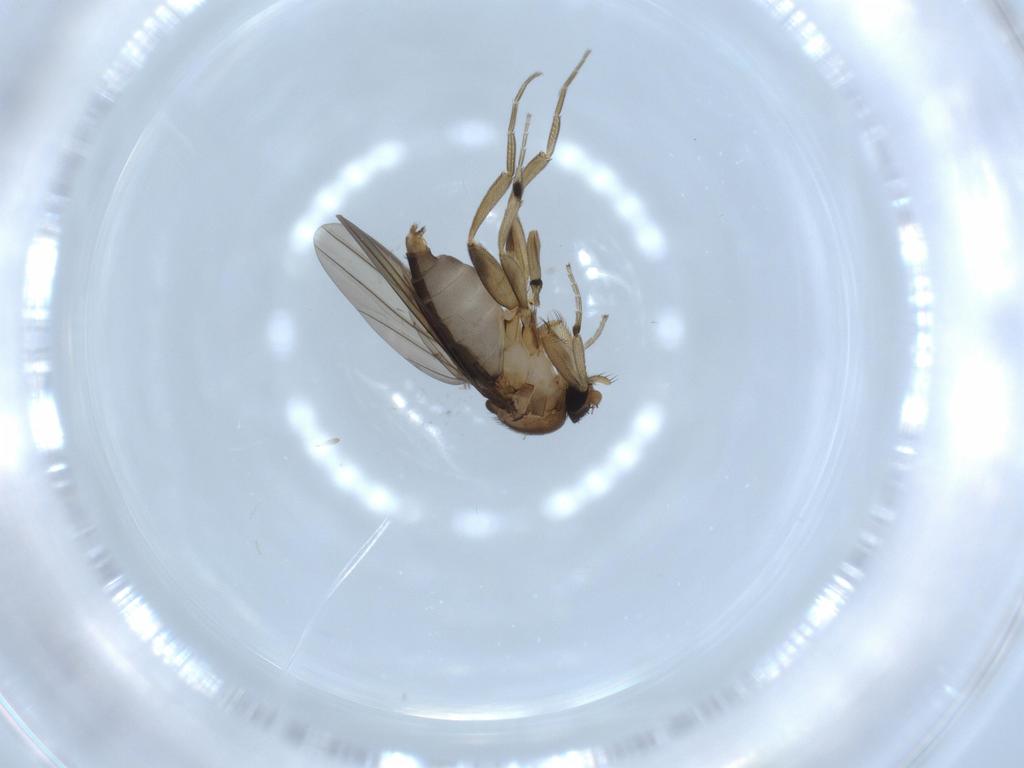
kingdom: Animalia
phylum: Arthropoda
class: Insecta
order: Diptera
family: Phoridae
